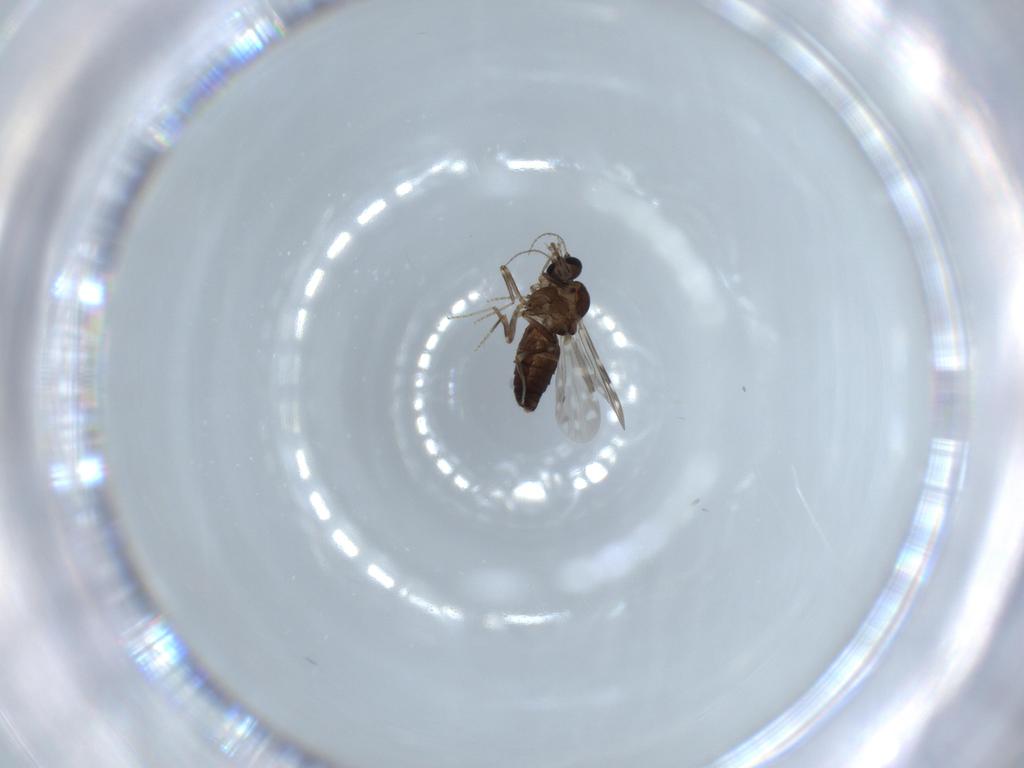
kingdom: Animalia
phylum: Arthropoda
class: Insecta
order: Diptera
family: Ceratopogonidae
